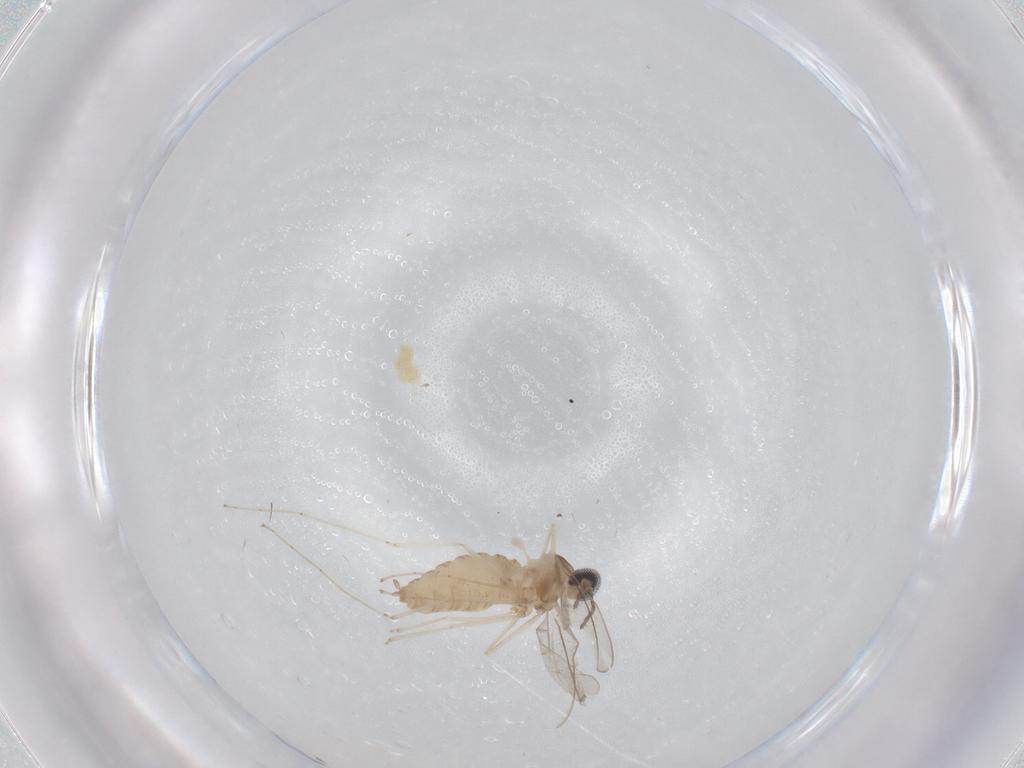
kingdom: Animalia
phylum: Arthropoda
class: Insecta
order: Diptera
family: Cecidomyiidae
